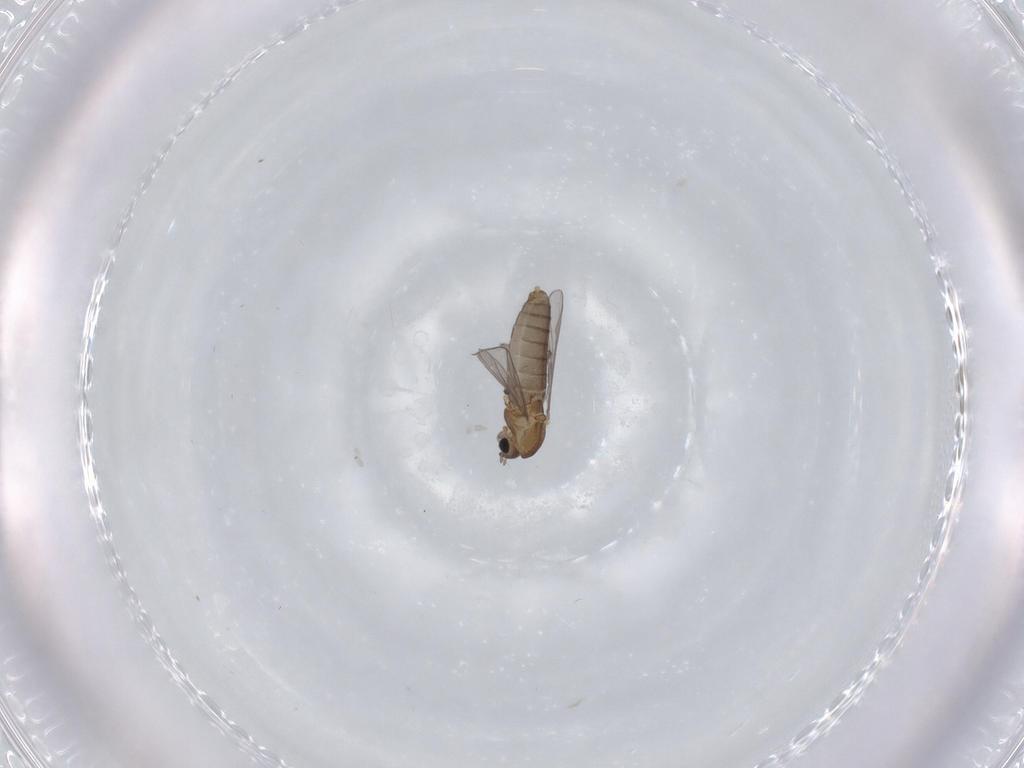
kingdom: Animalia
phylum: Arthropoda
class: Insecta
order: Diptera
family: Chironomidae
